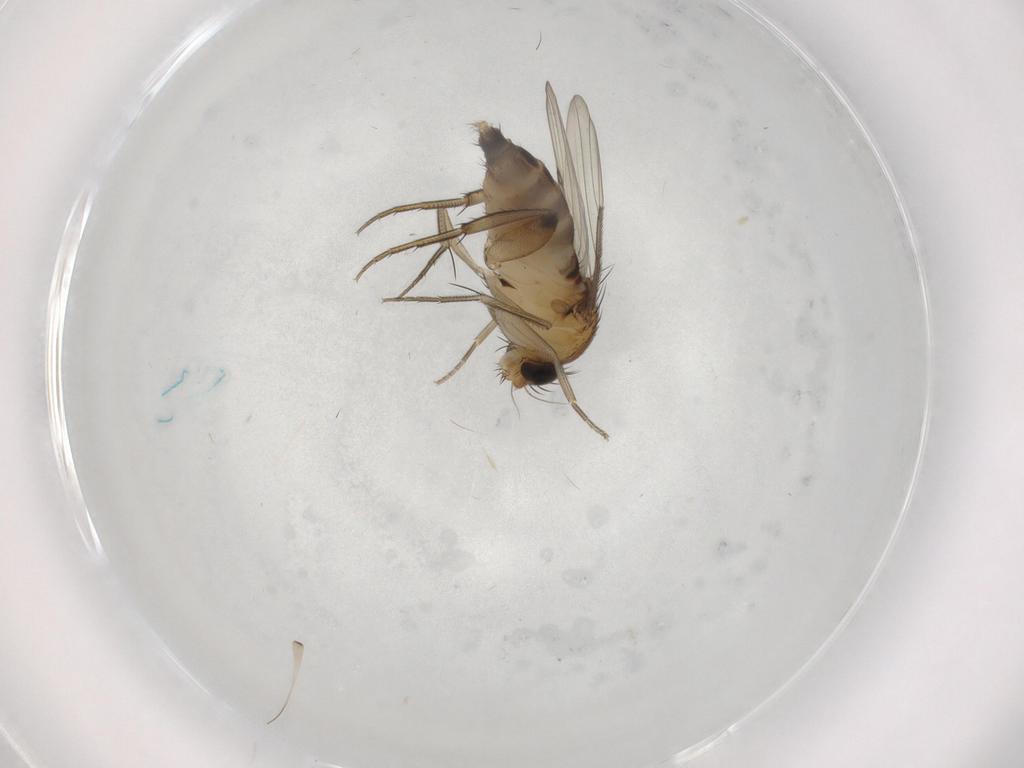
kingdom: Animalia
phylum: Arthropoda
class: Insecta
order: Diptera
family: Phoridae
